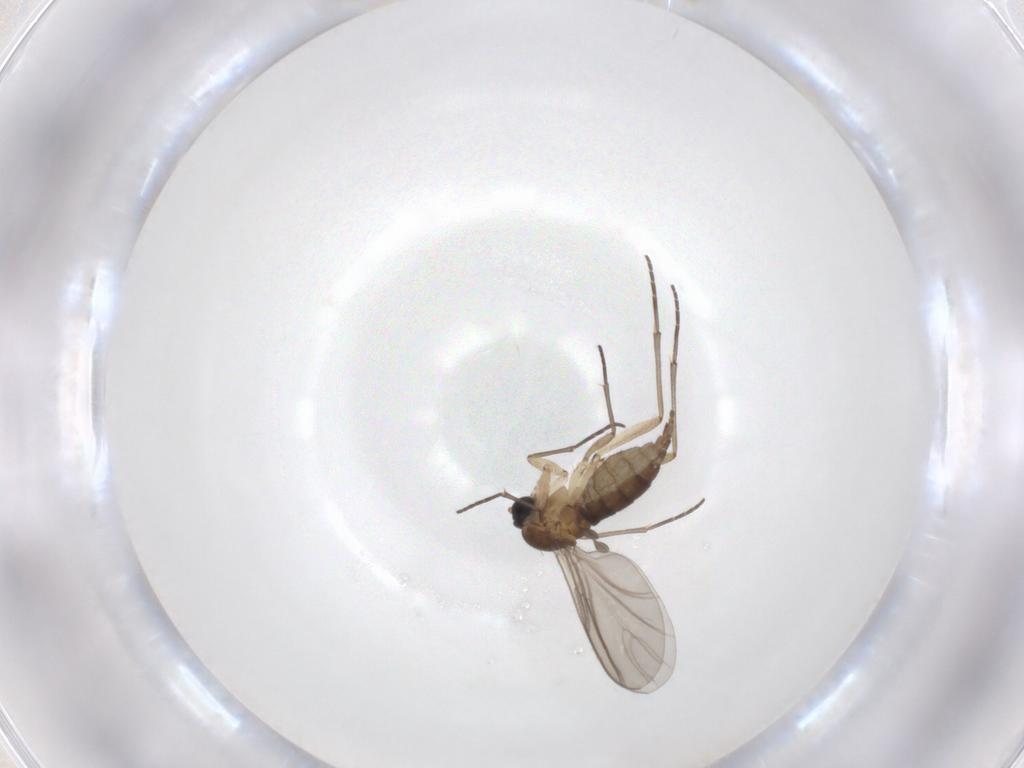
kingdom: Animalia
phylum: Arthropoda
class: Insecta
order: Diptera
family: Sciaridae
